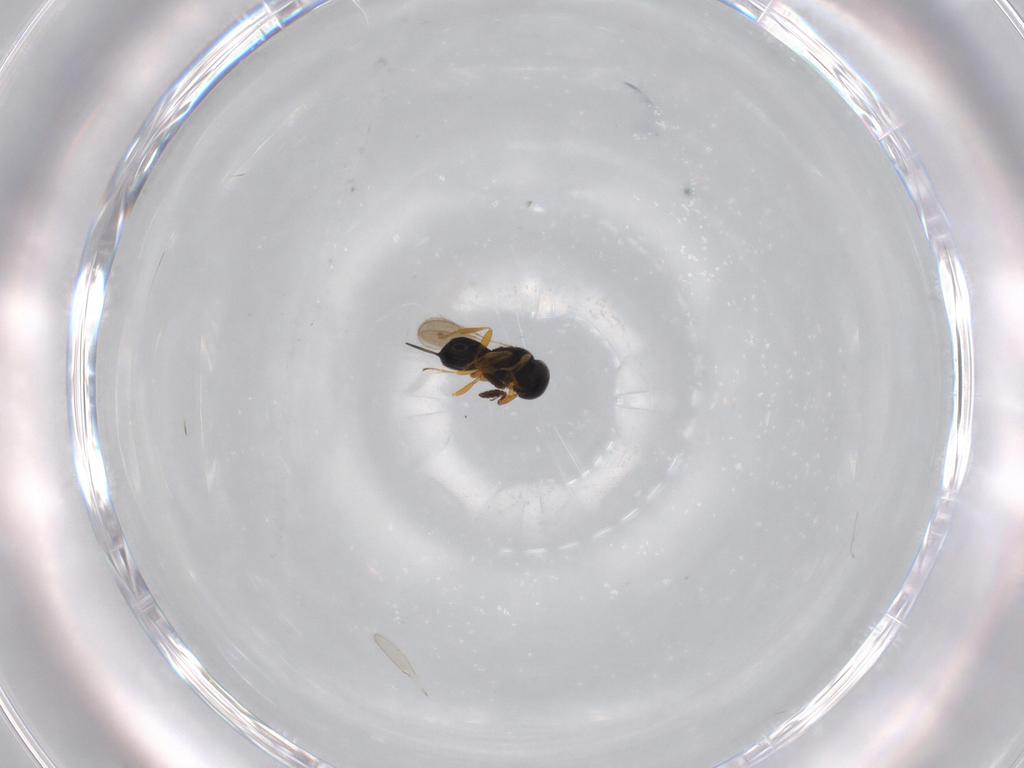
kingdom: Animalia
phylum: Arthropoda
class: Insecta
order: Hymenoptera
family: Scelionidae
